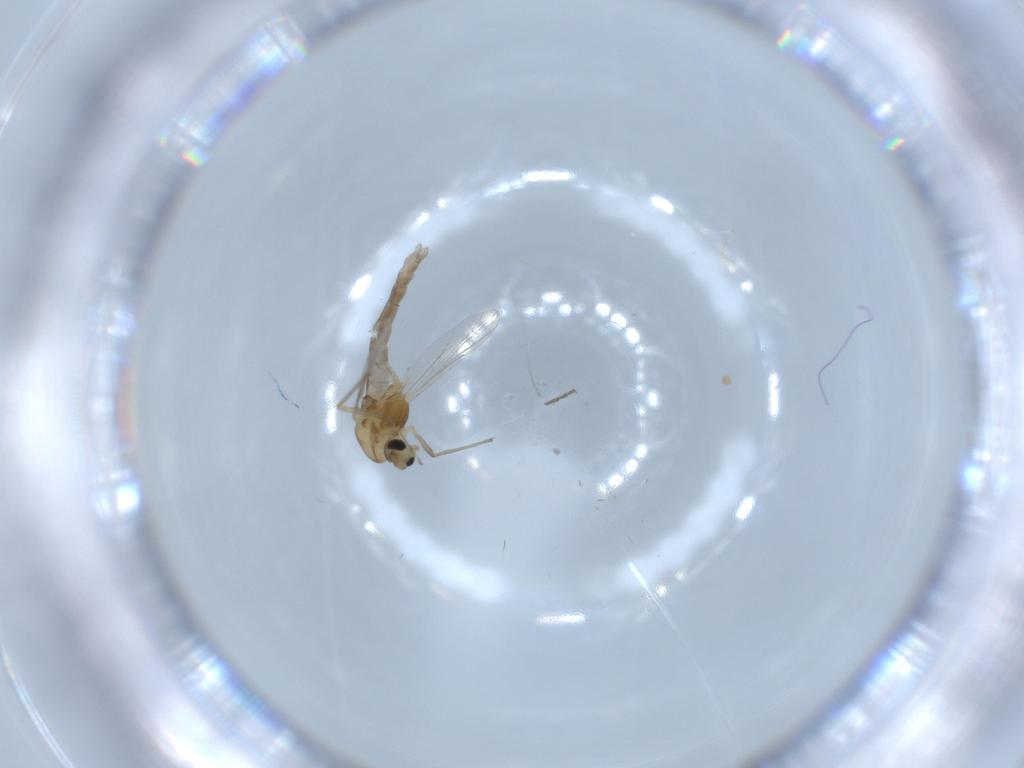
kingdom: Animalia
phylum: Arthropoda
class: Insecta
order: Diptera
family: Chironomidae
